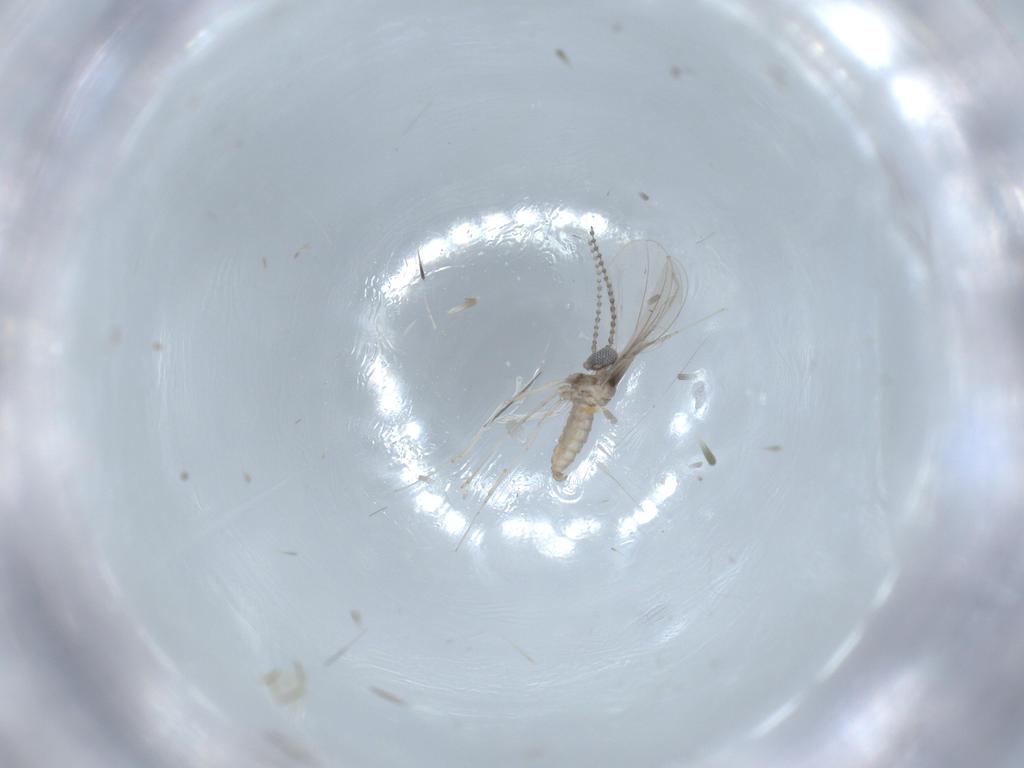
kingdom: Animalia
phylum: Arthropoda
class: Insecta
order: Diptera
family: Cecidomyiidae
